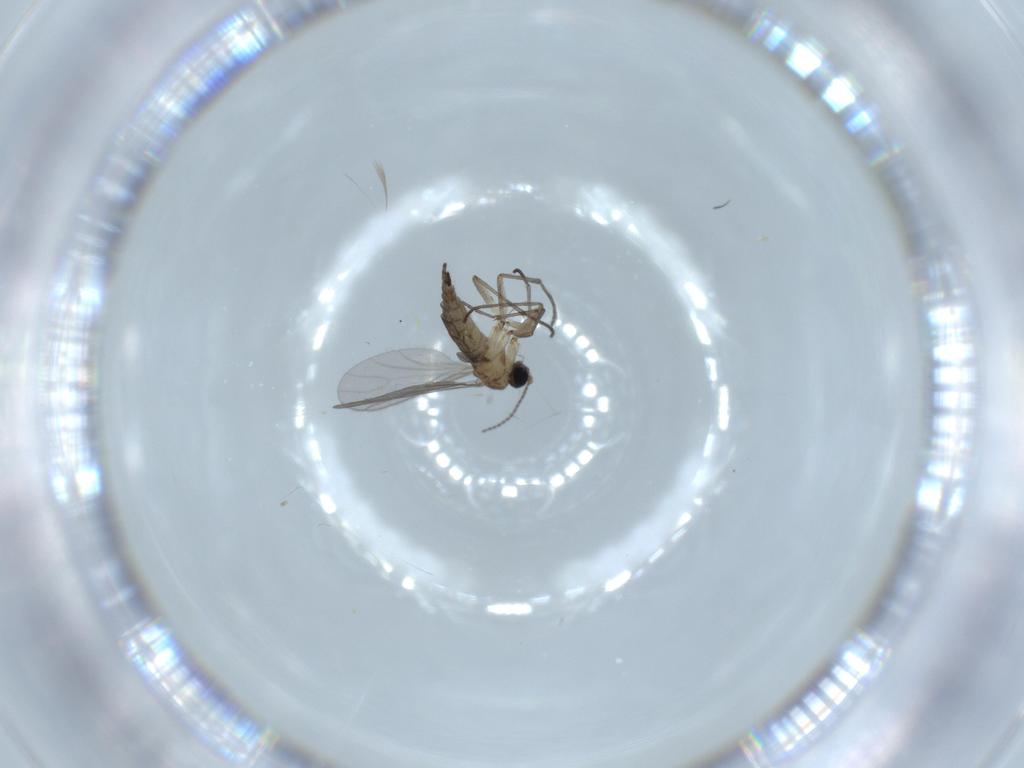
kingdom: Animalia
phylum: Arthropoda
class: Insecta
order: Diptera
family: Sciaridae
